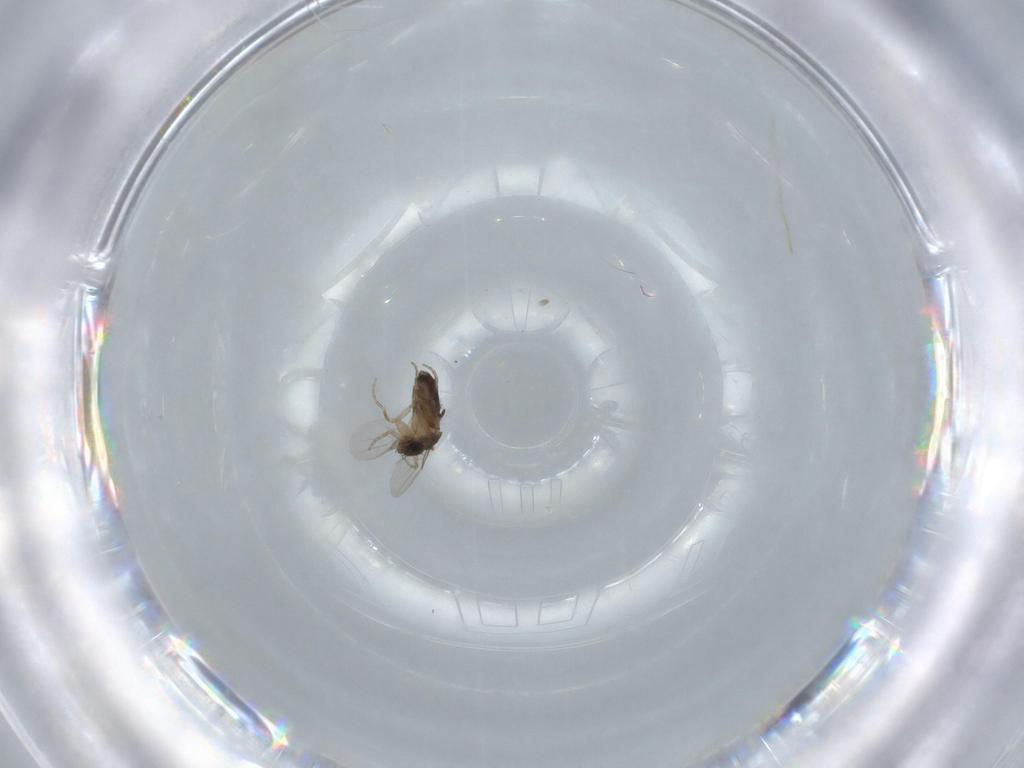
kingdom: Animalia
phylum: Arthropoda
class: Insecta
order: Diptera
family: Phoridae
